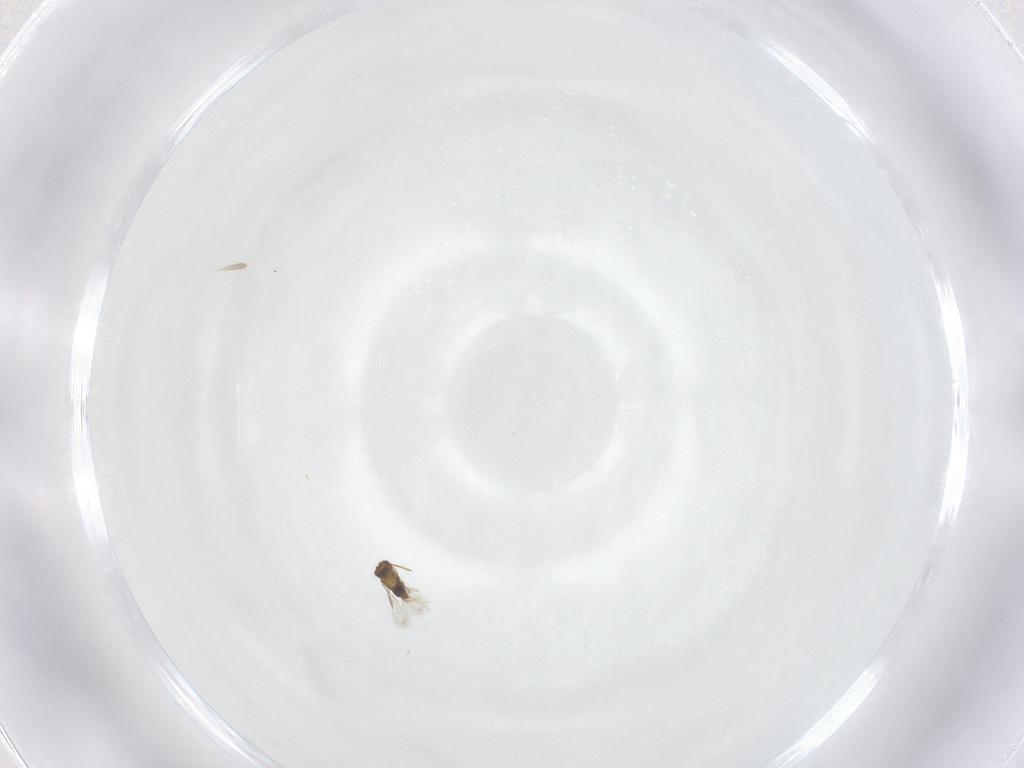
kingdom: Animalia
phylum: Arthropoda
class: Insecta
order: Hymenoptera
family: Aphelinidae
